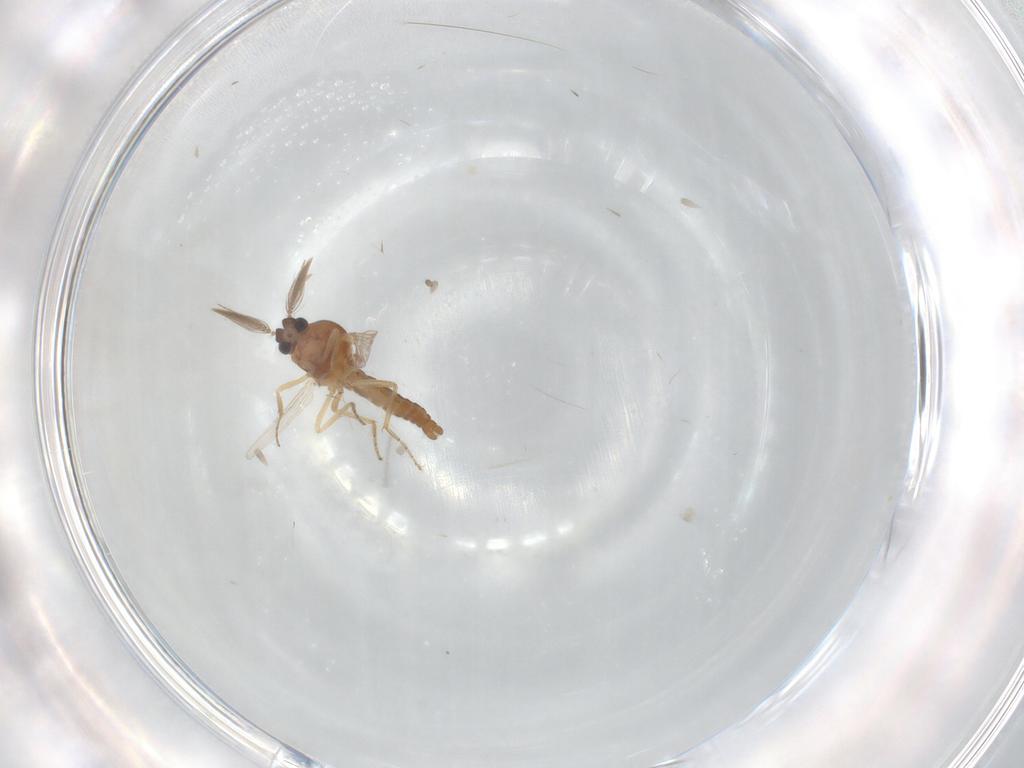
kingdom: Animalia
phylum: Arthropoda
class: Insecta
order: Diptera
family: Ceratopogonidae
